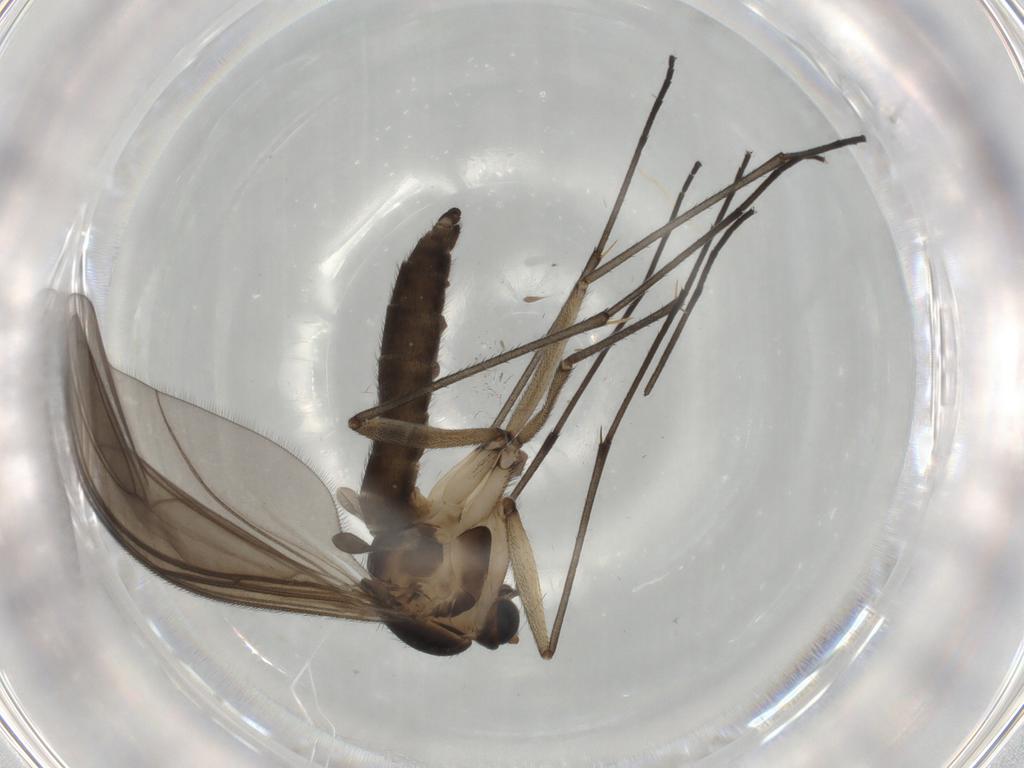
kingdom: Animalia
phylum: Arthropoda
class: Insecta
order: Diptera
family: Sciaridae
